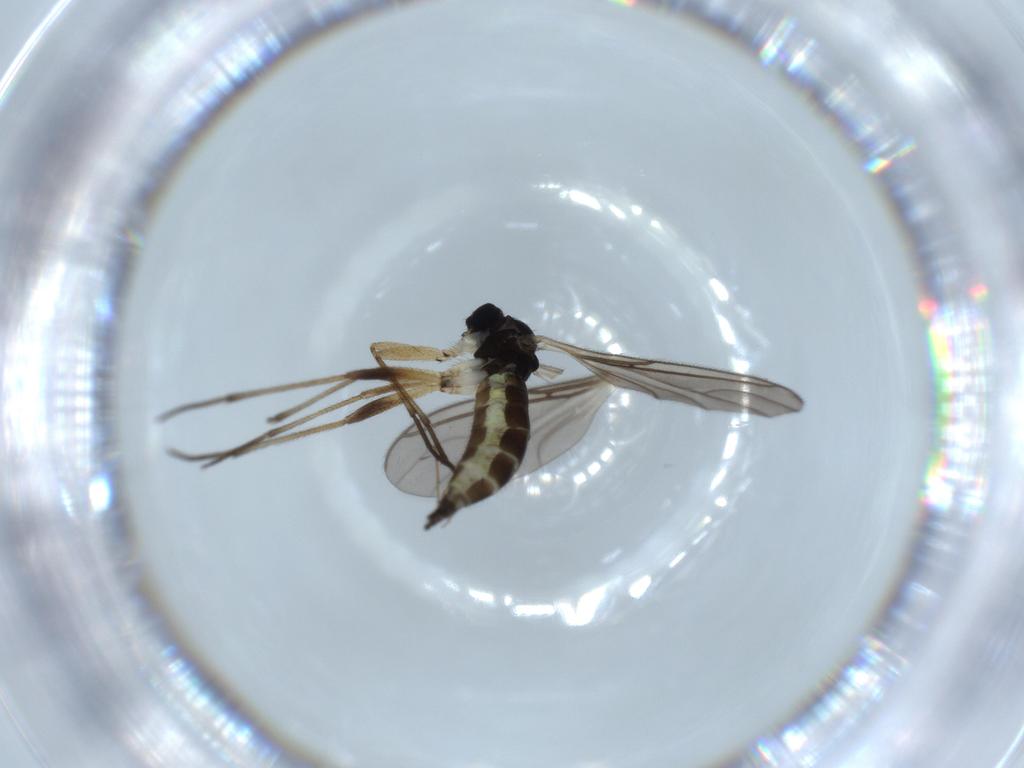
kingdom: Animalia
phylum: Arthropoda
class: Insecta
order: Diptera
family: Sciaridae
